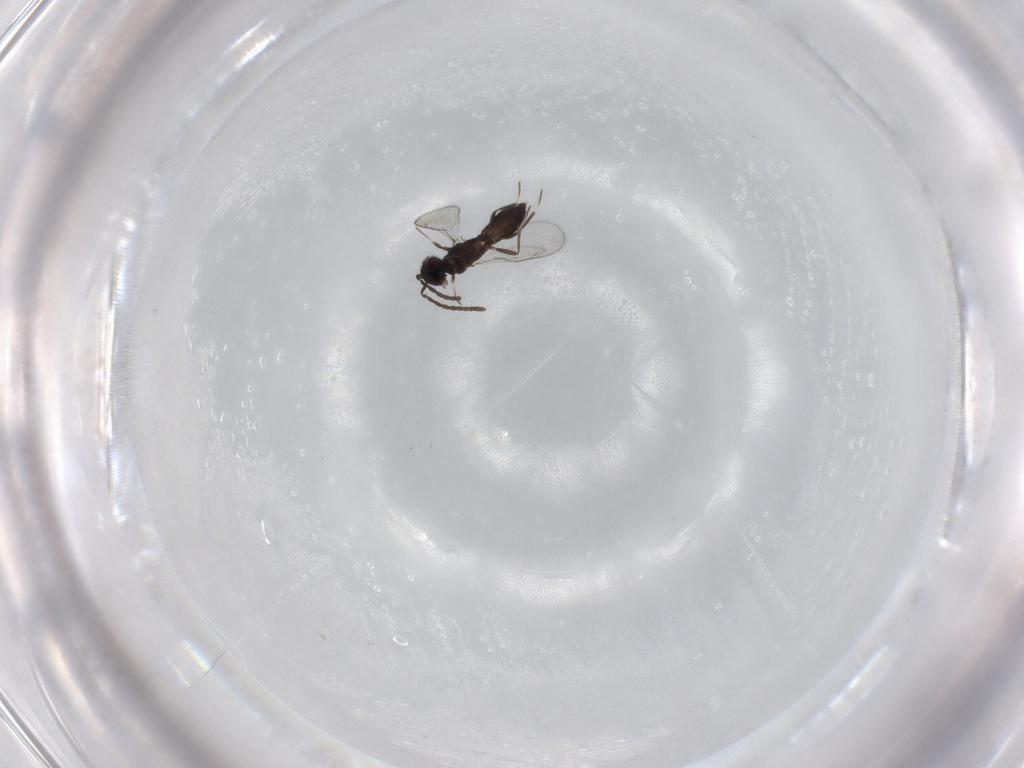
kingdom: Animalia
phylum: Arthropoda
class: Insecta
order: Hymenoptera
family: Eupelmidae
